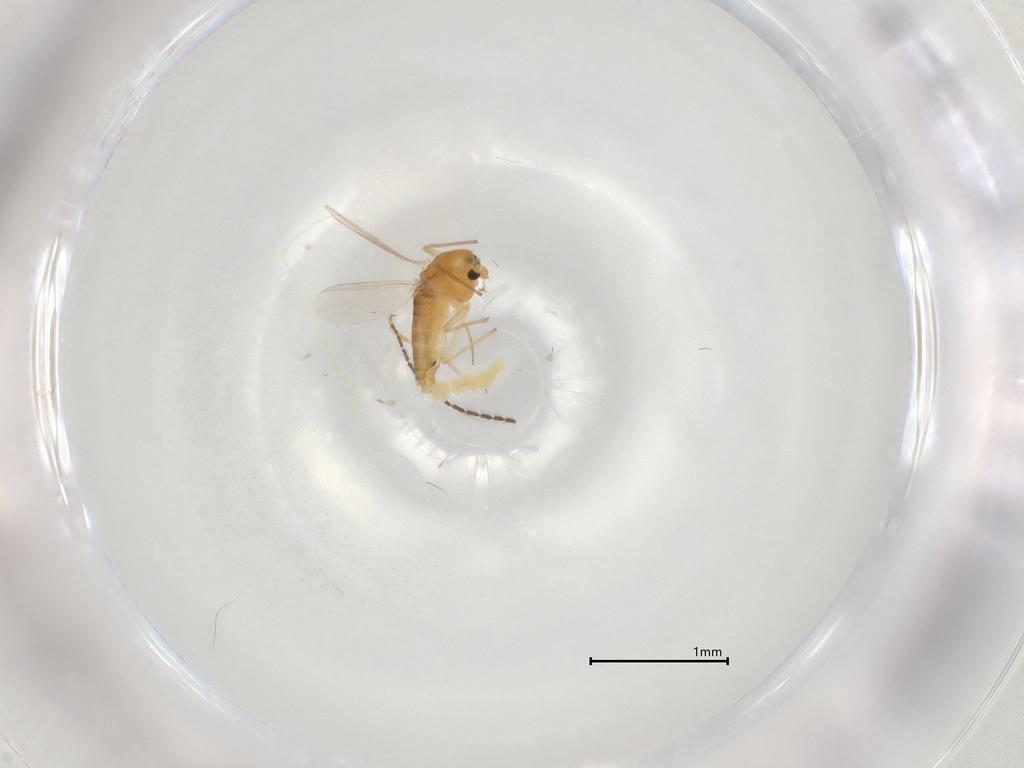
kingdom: Animalia
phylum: Arthropoda
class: Insecta
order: Diptera
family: Chironomidae
